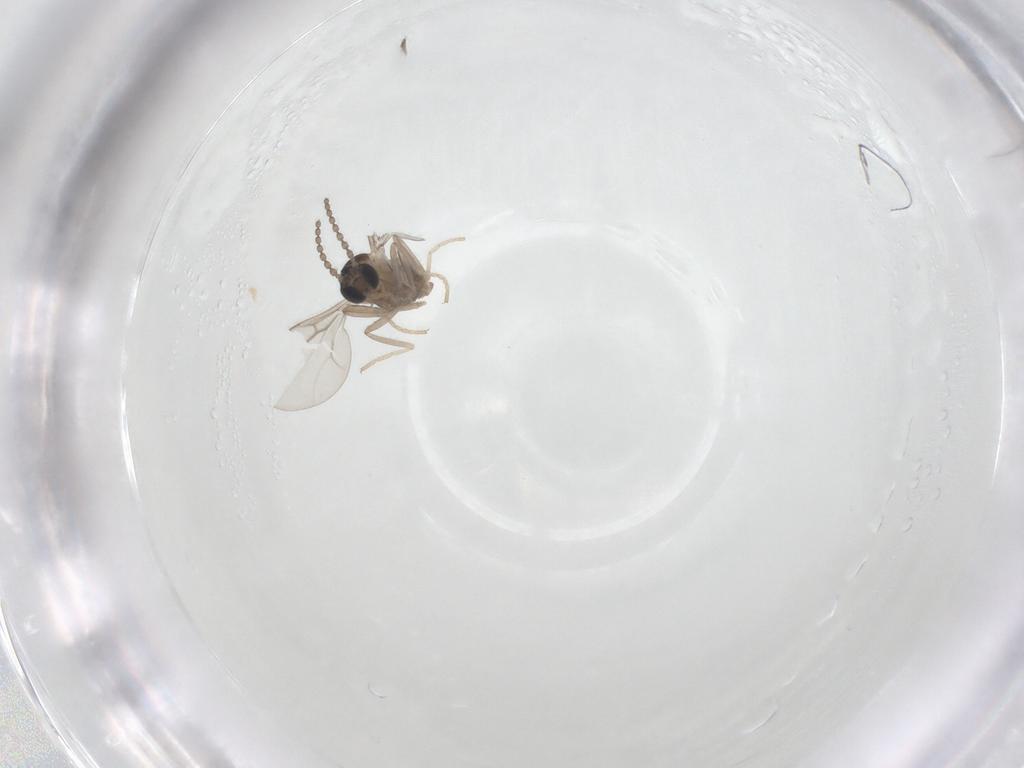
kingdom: Animalia
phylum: Arthropoda
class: Insecta
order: Diptera
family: Cecidomyiidae
